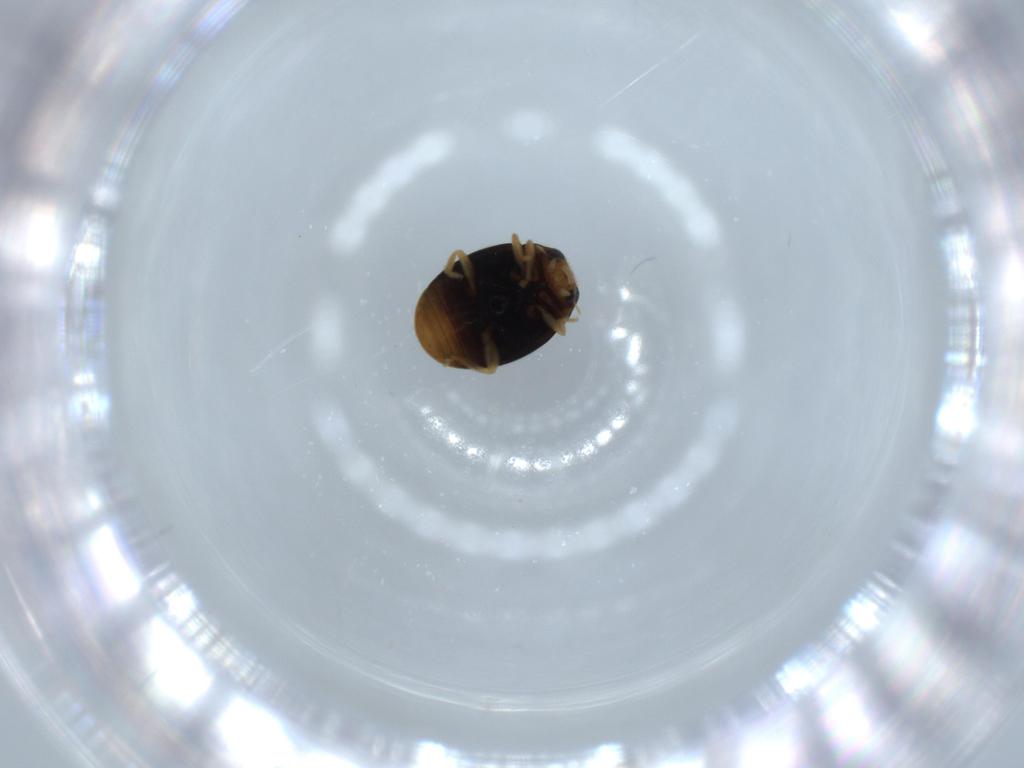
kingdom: Animalia
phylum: Arthropoda
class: Insecta
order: Coleoptera
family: Coccinellidae
